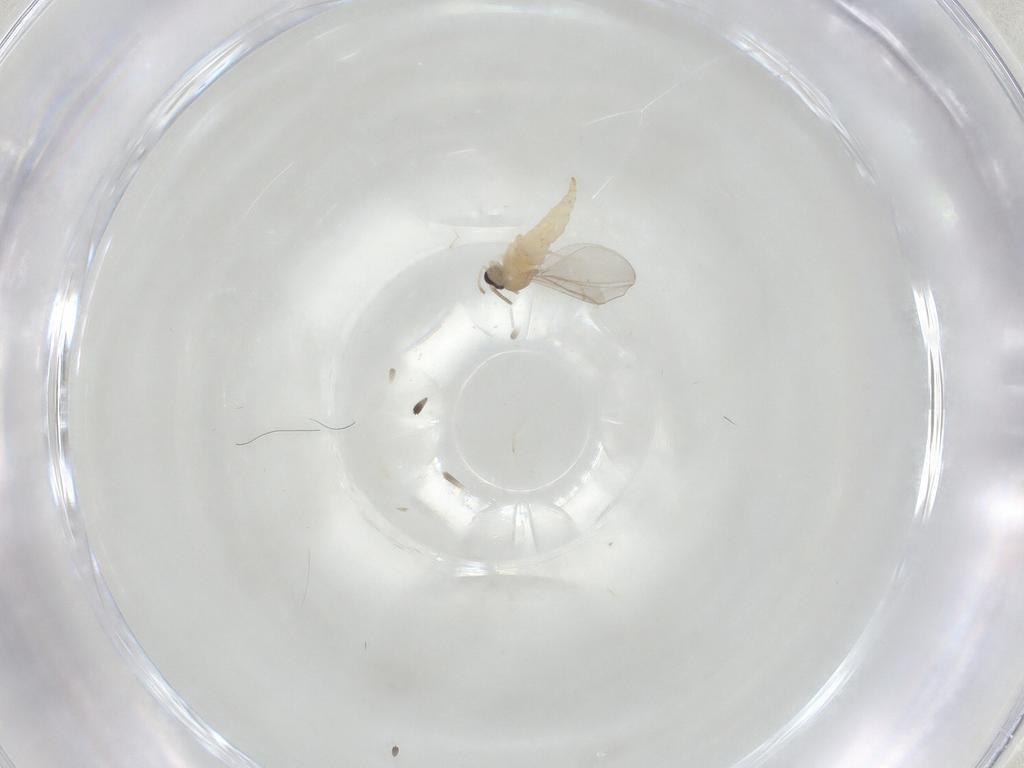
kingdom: Animalia
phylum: Arthropoda
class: Insecta
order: Diptera
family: Cecidomyiidae
